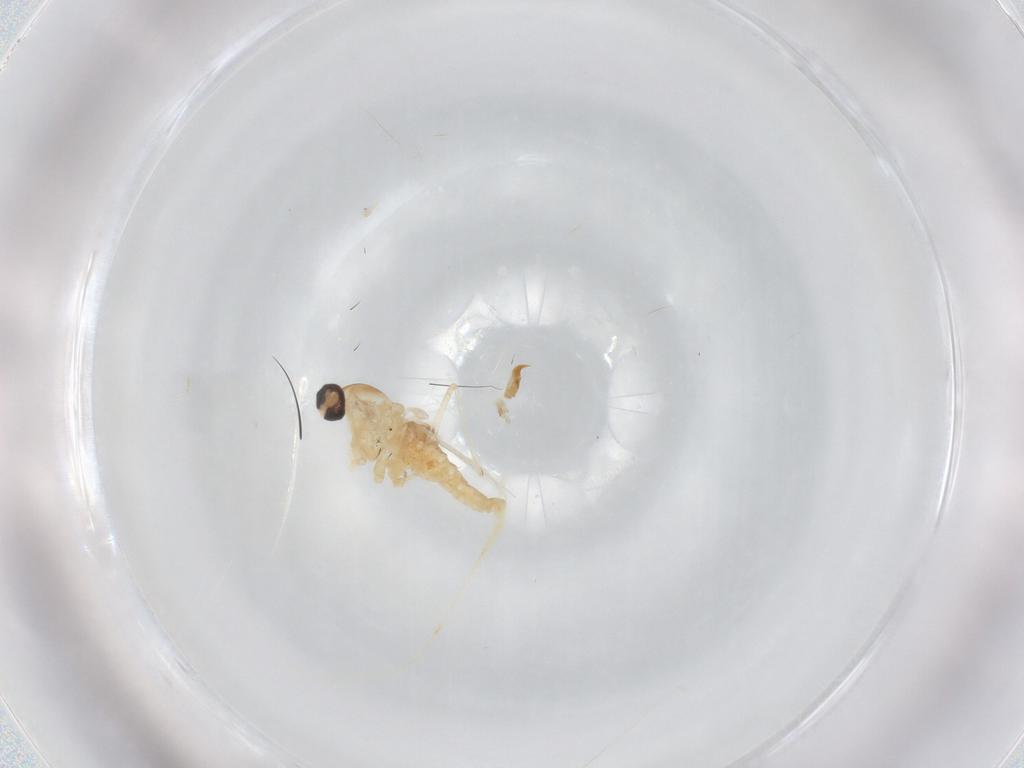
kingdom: Animalia
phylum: Arthropoda
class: Insecta
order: Diptera
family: Cecidomyiidae
